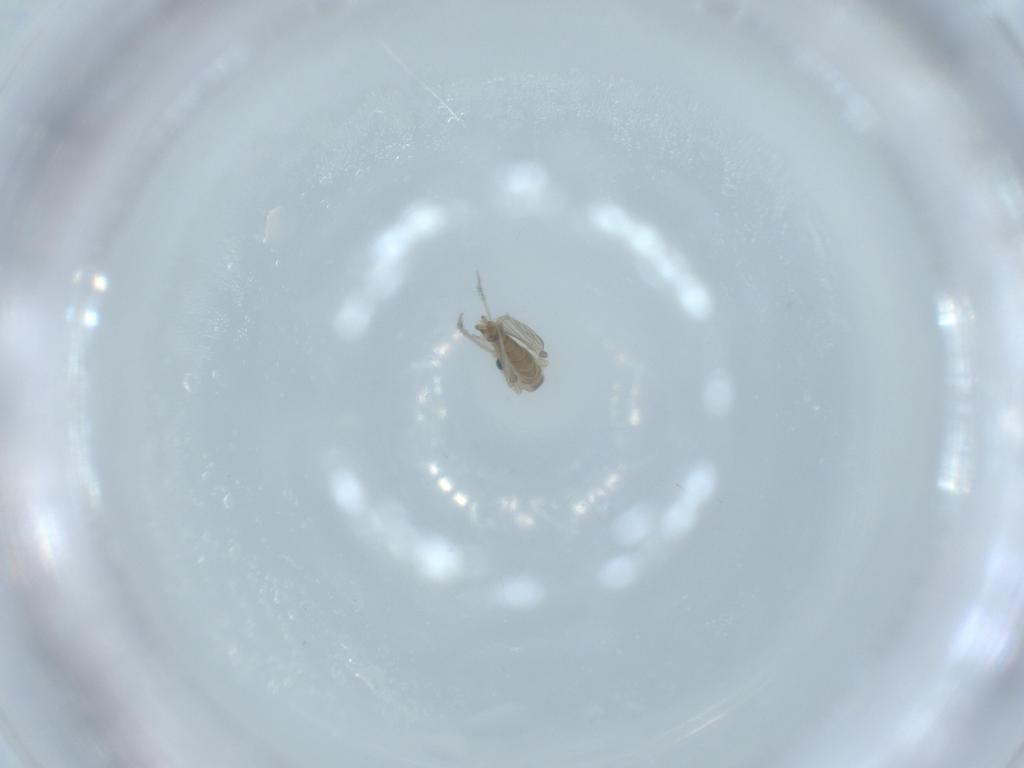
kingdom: Animalia
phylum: Arthropoda
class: Insecta
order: Diptera
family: Psychodidae
